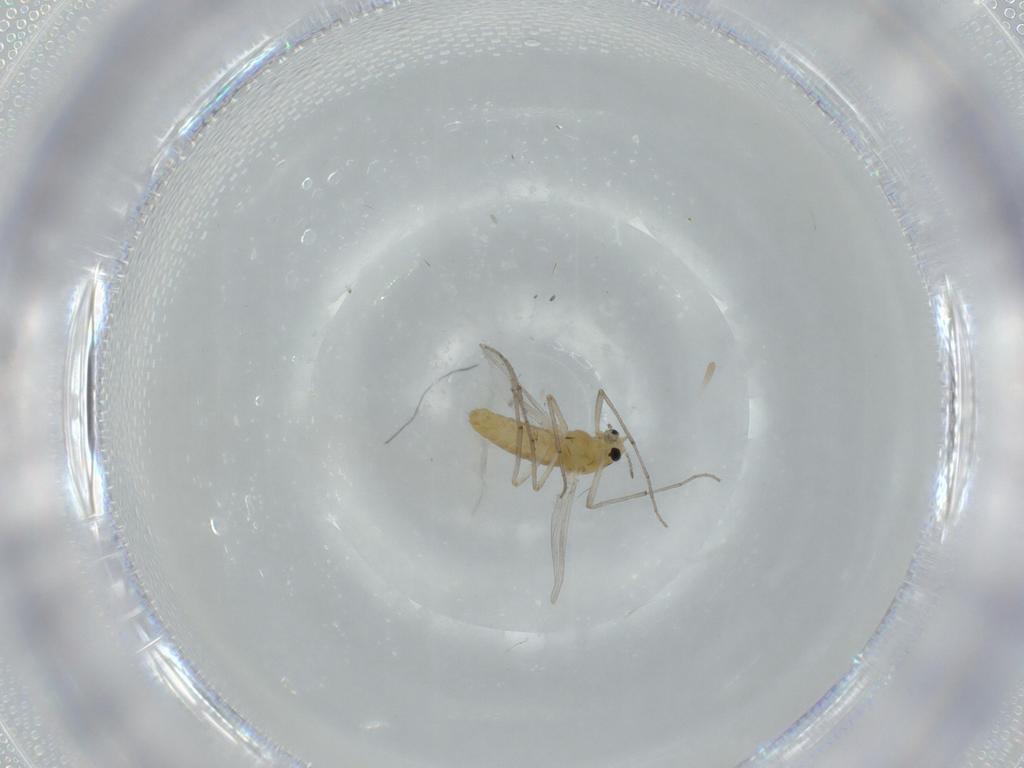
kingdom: Animalia
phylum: Arthropoda
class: Insecta
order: Diptera
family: Chironomidae
